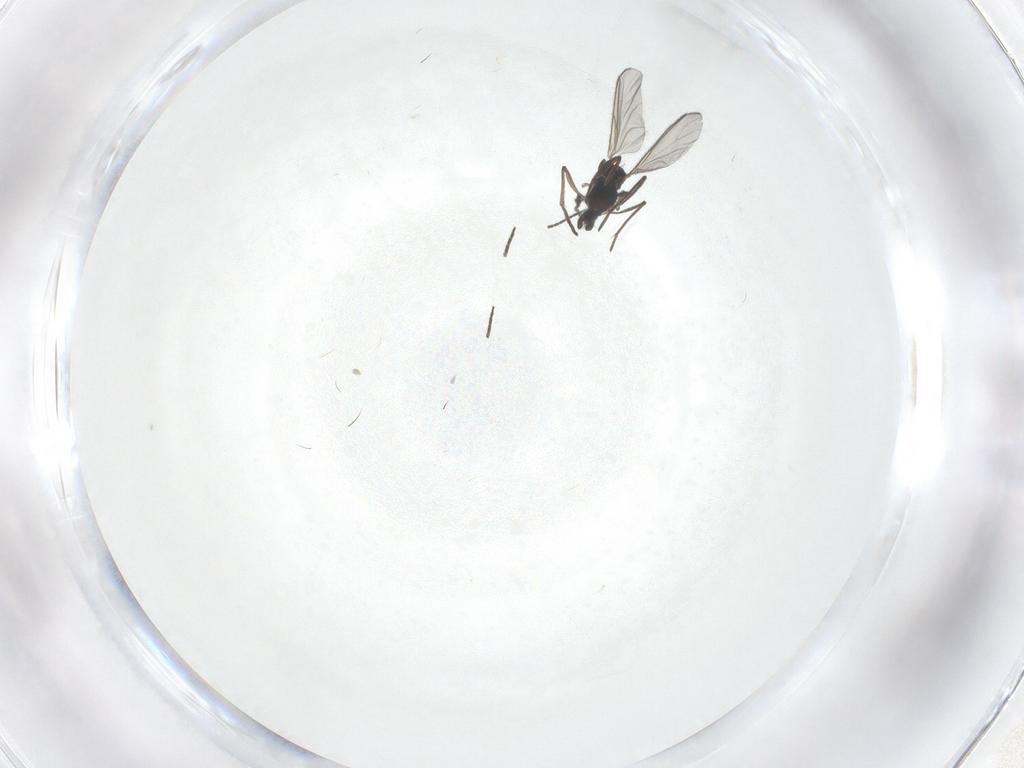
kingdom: Animalia
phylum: Arthropoda
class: Insecta
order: Diptera
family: Sciaridae
